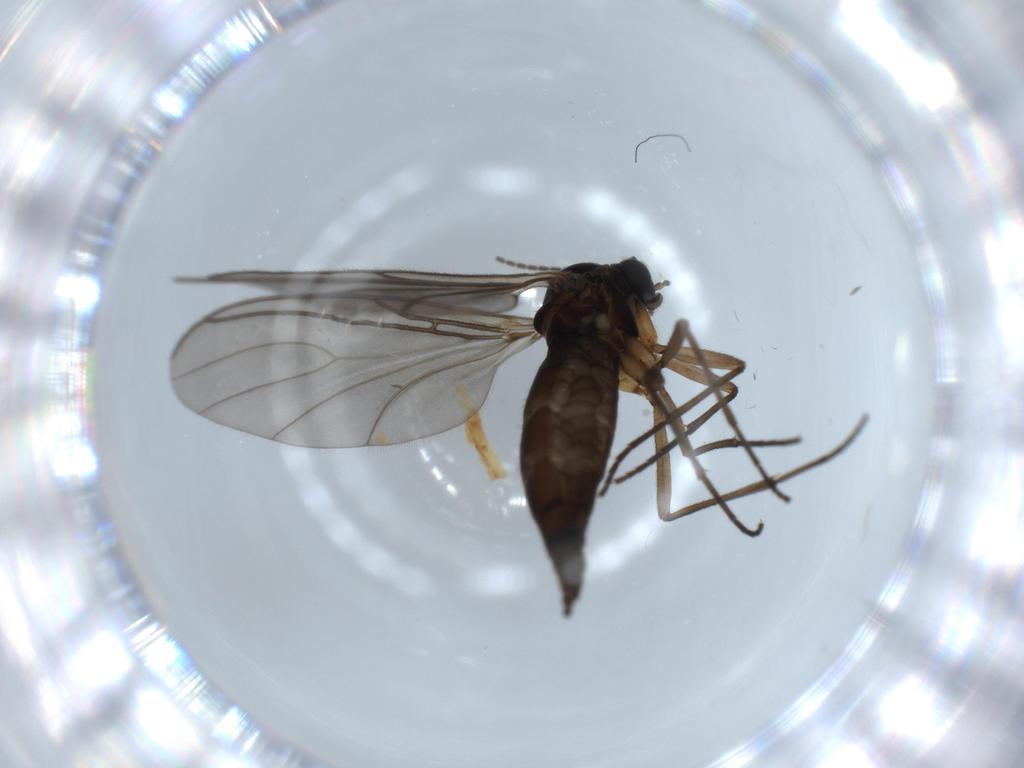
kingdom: Animalia
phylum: Arthropoda
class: Insecta
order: Diptera
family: Sciaridae
